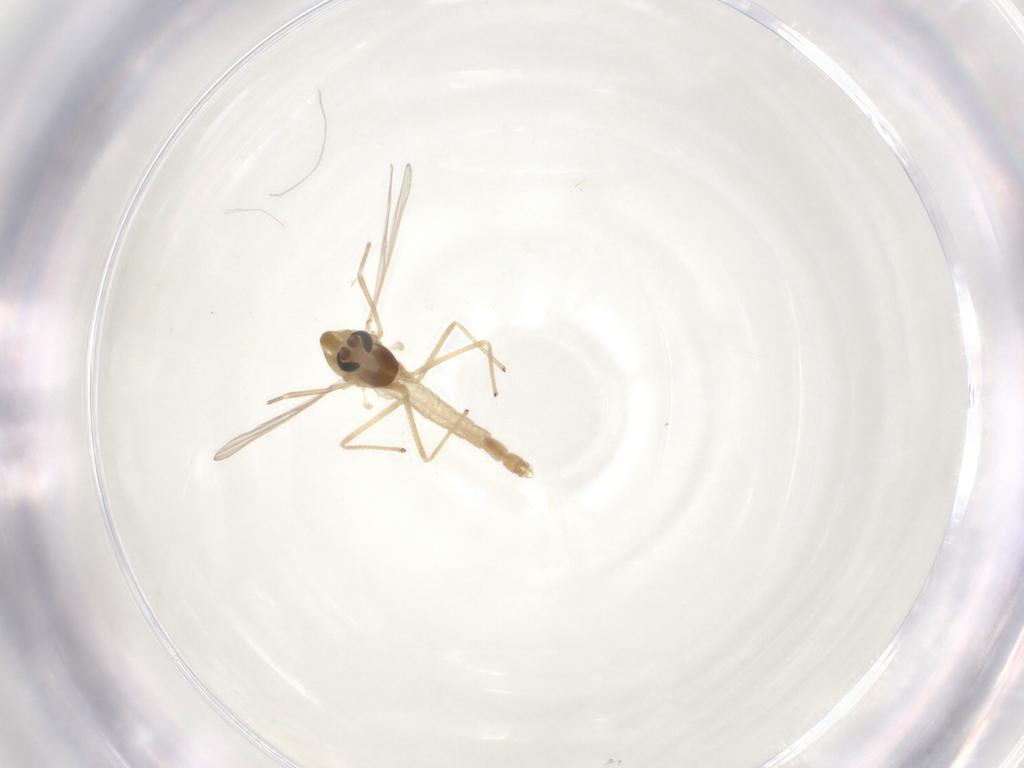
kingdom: Animalia
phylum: Arthropoda
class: Insecta
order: Diptera
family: Chironomidae
